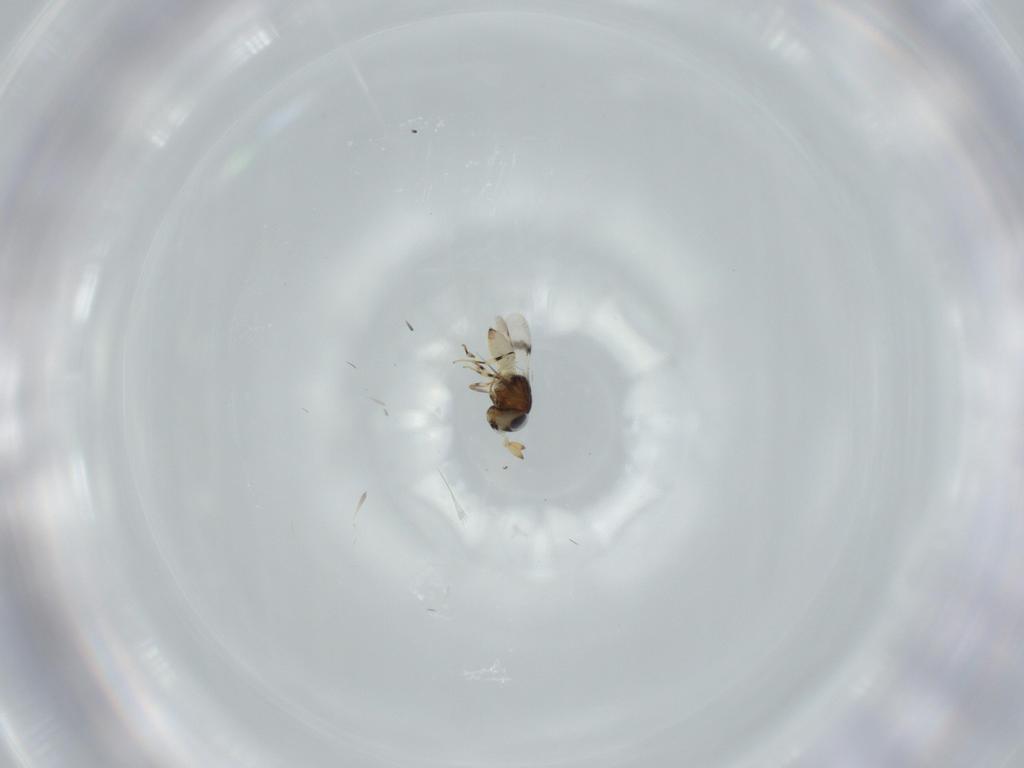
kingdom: Animalia
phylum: Arthropoda
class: Insecta
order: Hymenoptera
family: Scelionidae
